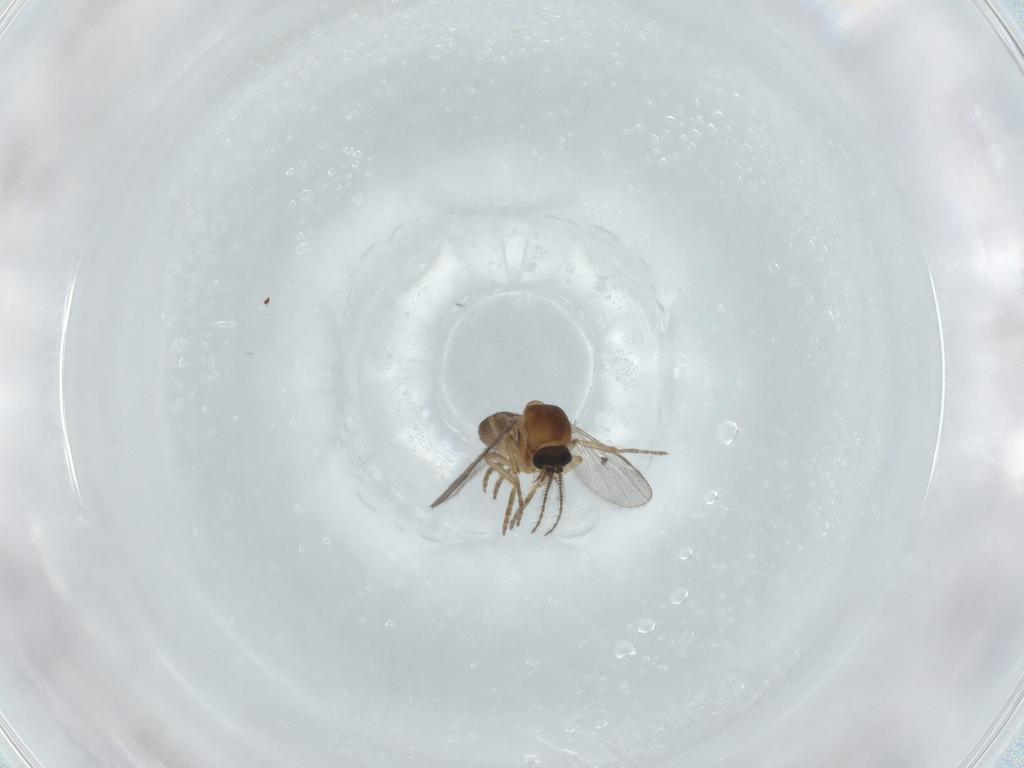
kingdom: Animalia
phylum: Arthropoda
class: Insecta
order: Diptera
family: Ceratopogonidae
